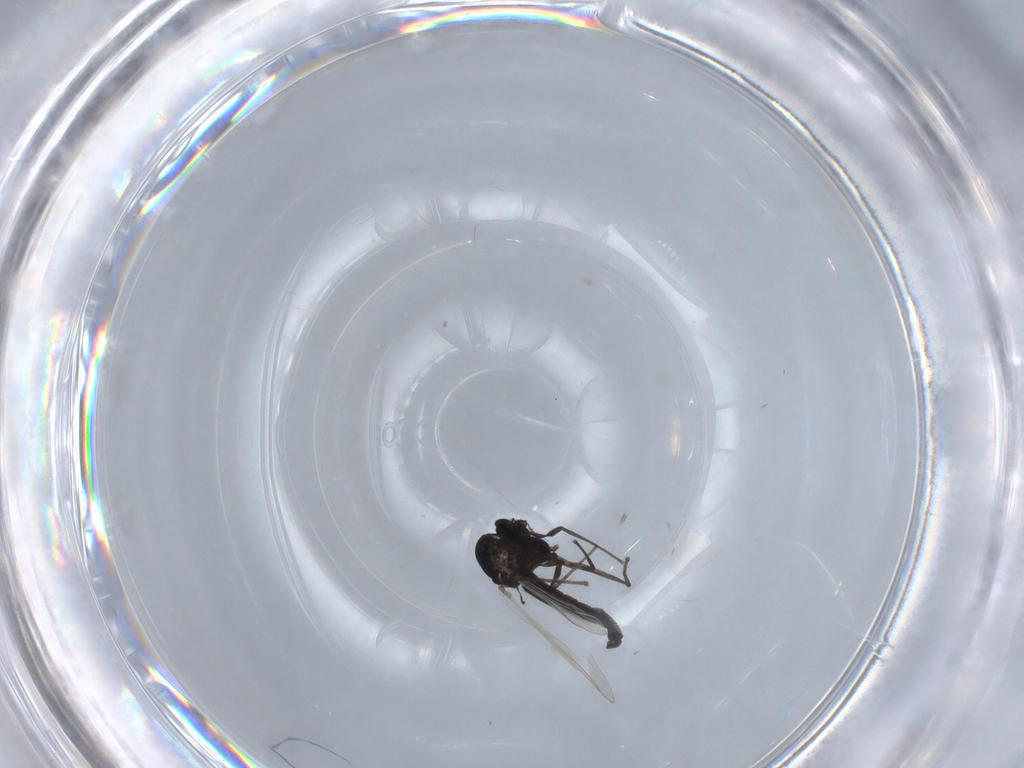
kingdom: Animalia
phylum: Arthropoda
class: Insecta
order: Diptera
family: Chironomidae
